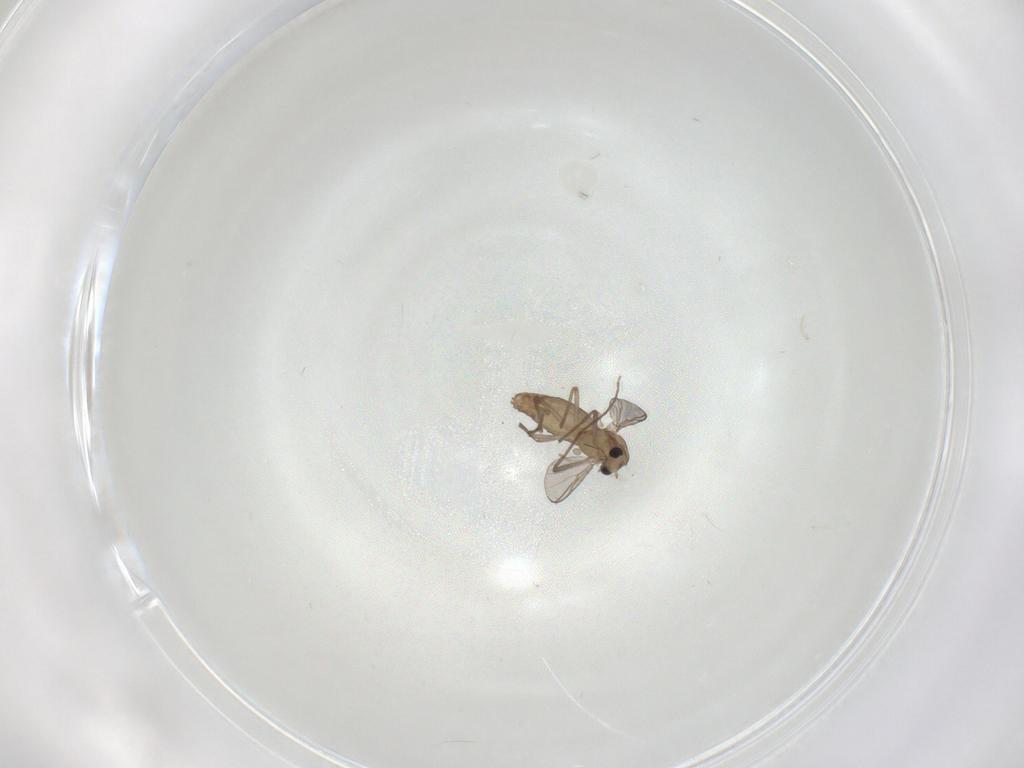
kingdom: Animalia
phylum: Arthropoda
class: Insecta
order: Diptera
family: Chironomidae
